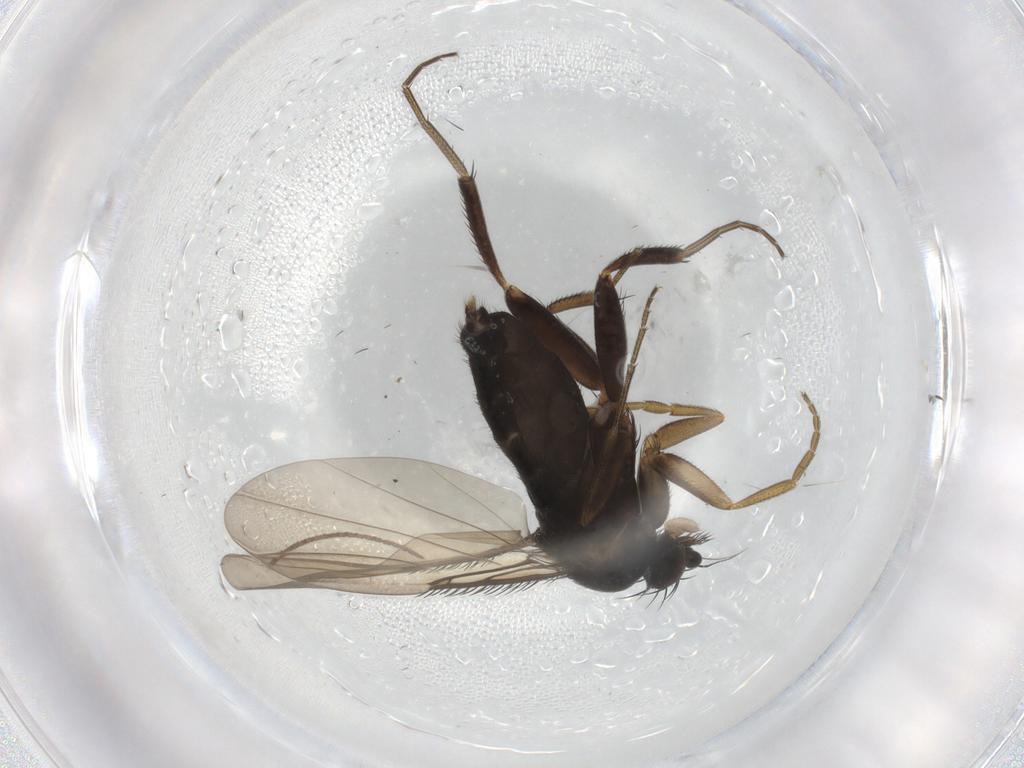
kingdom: Animalia
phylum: Arthropoda
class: Insecta
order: Diptera
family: Phoridae
